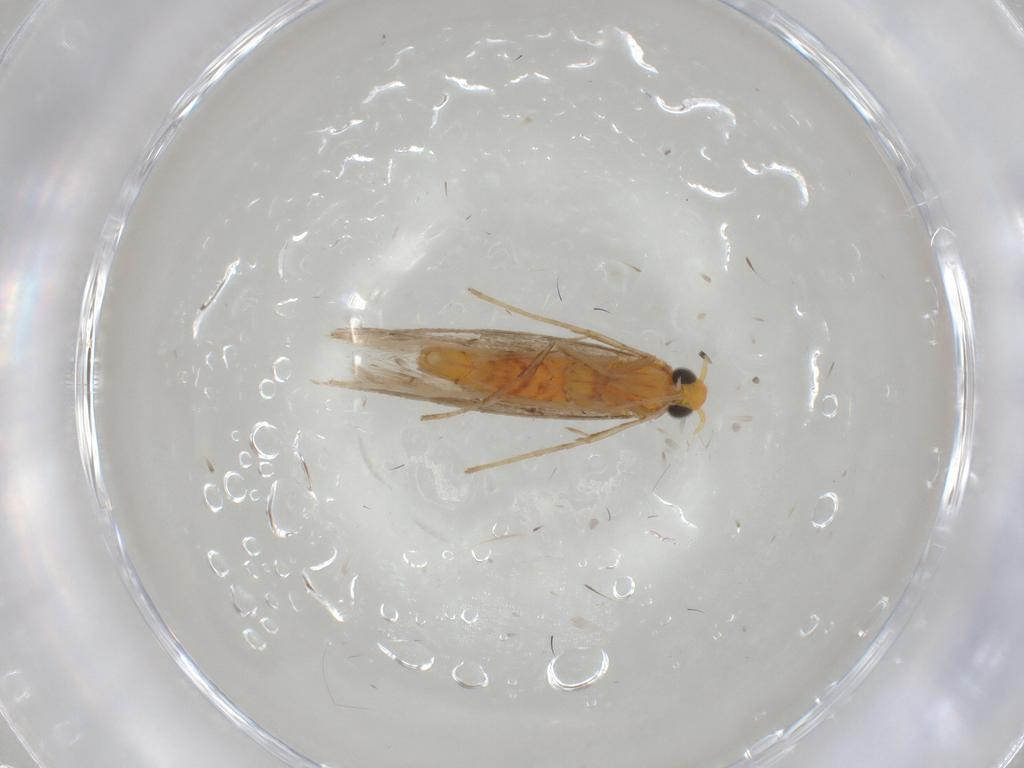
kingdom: Animalia
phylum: Arthropoda
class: Insecta
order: Lepidoptera
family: Gracillariidae
